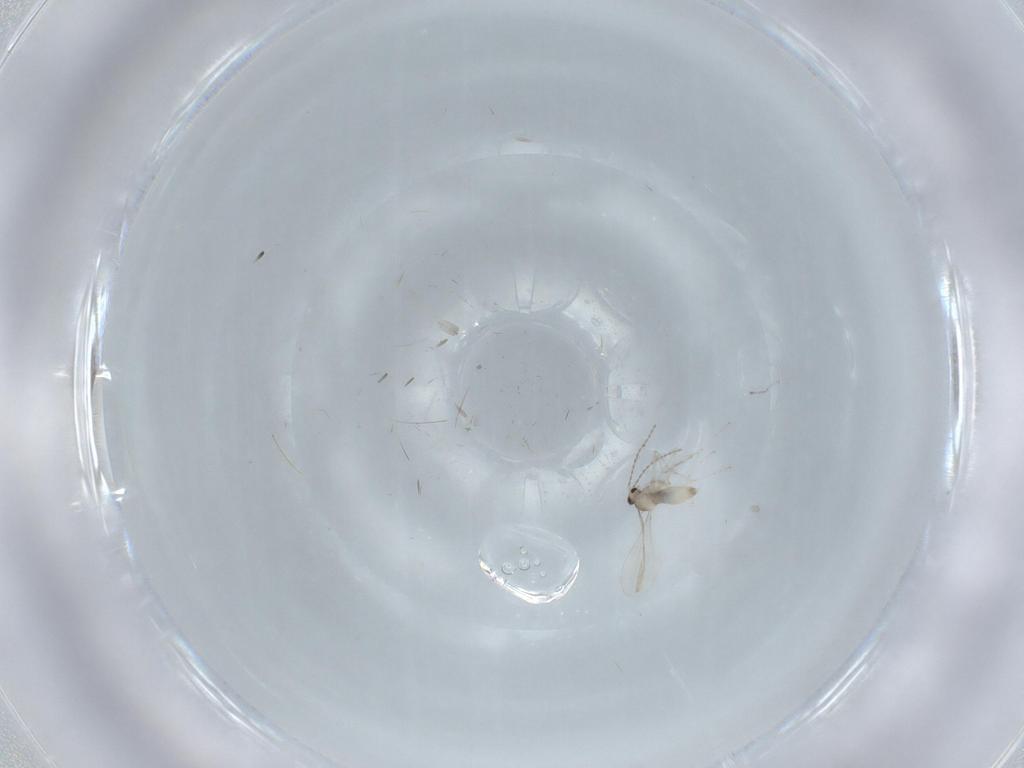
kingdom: Animalia
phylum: Arthropoda
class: Insecta
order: Diptera
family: Cecidomyiidae
